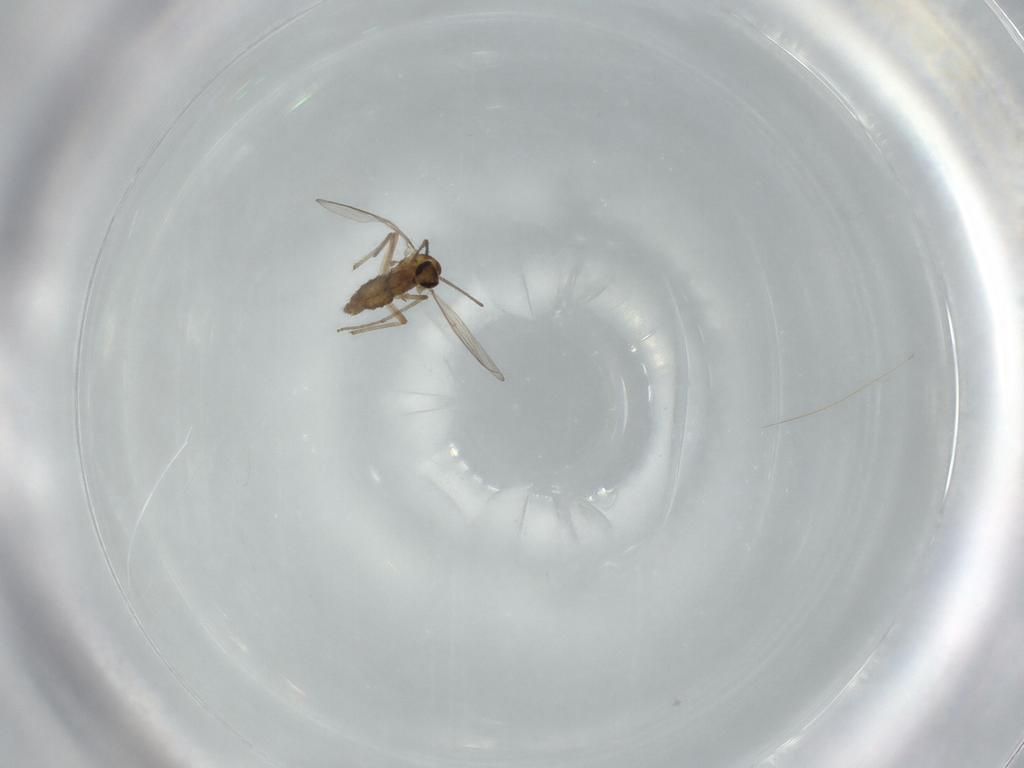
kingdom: Animalia
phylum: Arthropoda
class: Insecta
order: Diptera
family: Chironomidae
